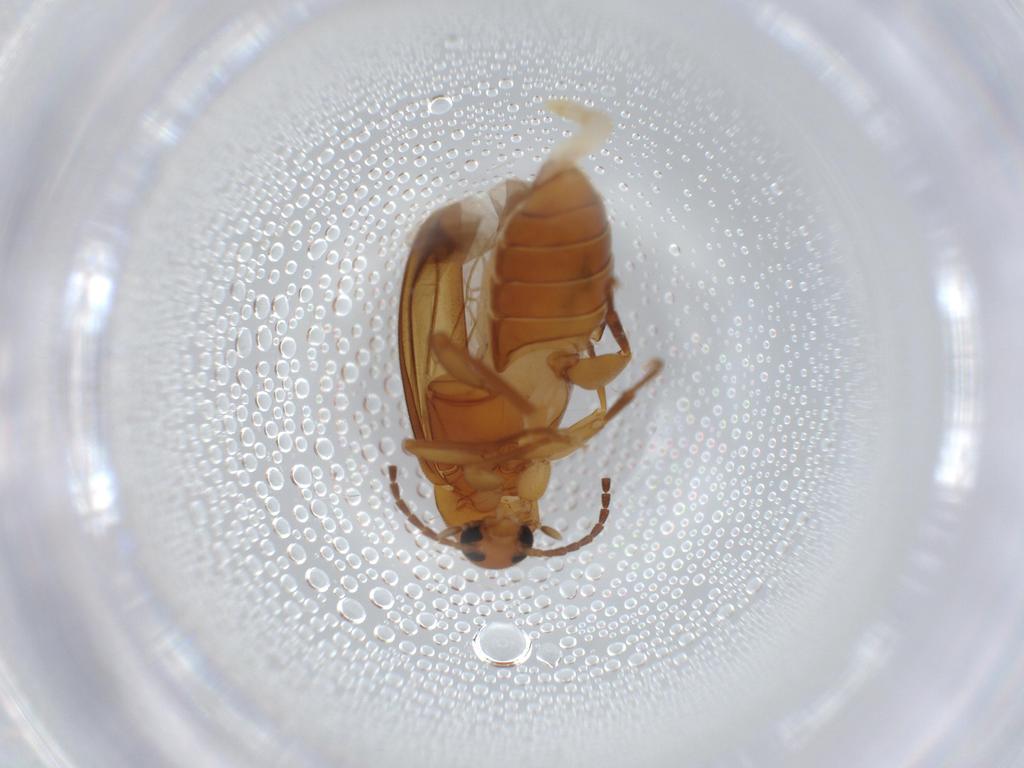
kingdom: Animalia
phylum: Arthropoda
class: Insecta
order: Coleoptera
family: Scraptiidae
